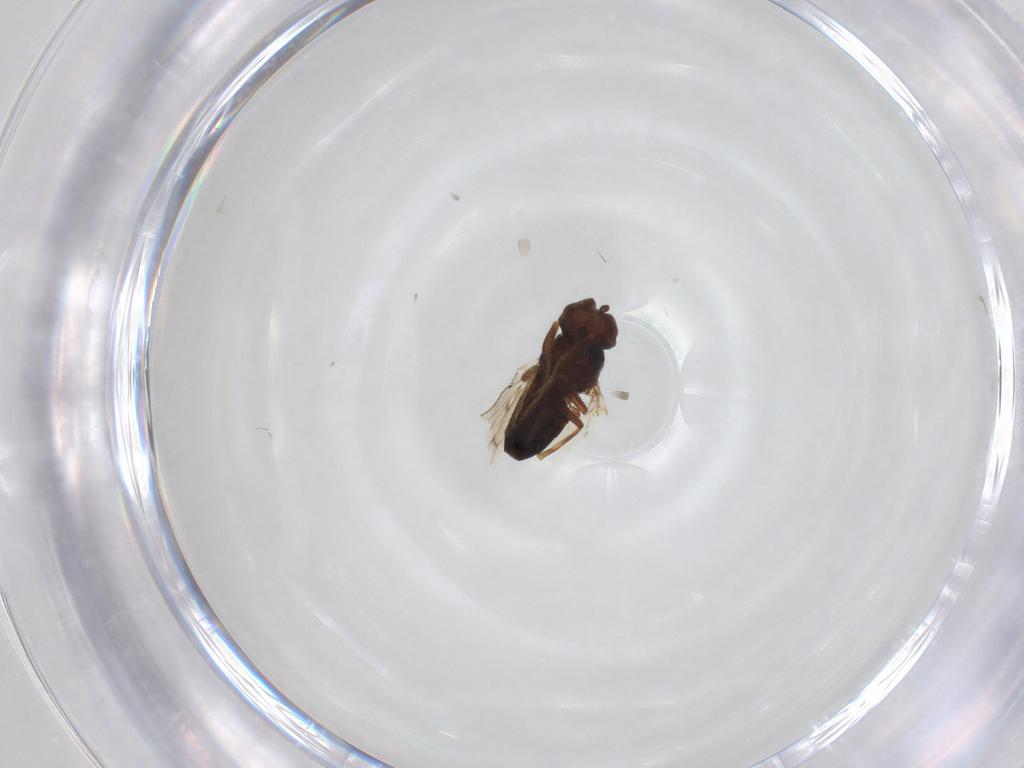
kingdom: Animalia
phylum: Arthropoda
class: Insecta
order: Diptera
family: Ephydridae
